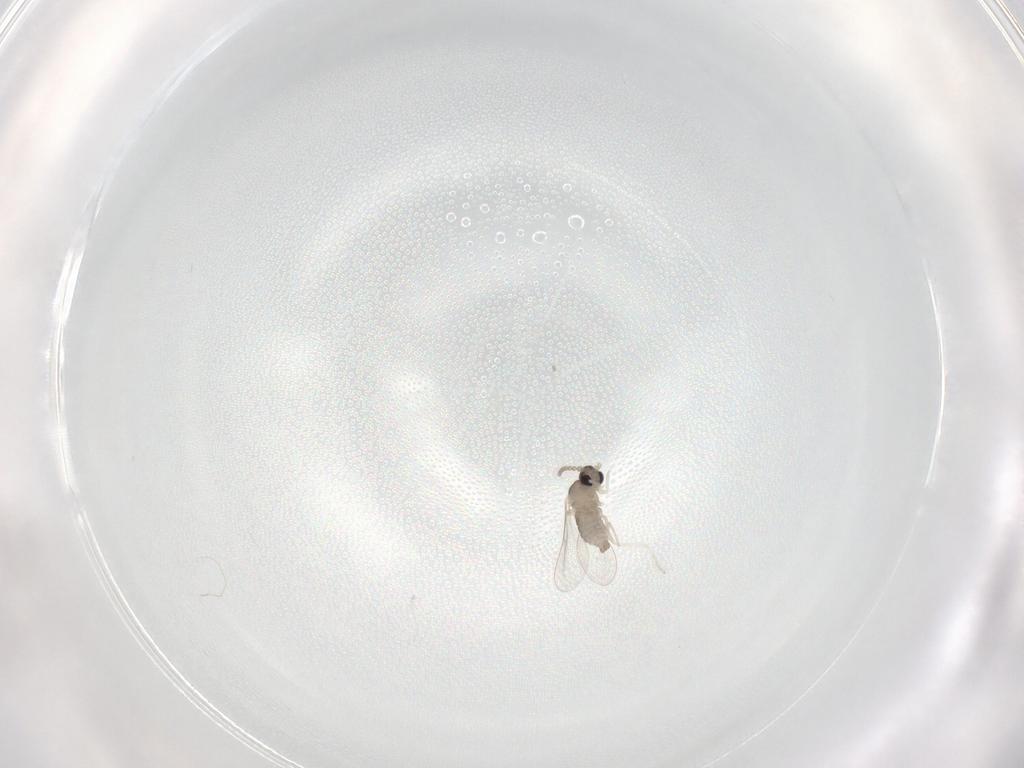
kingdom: Animalia
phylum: Arthropoda
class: Insecta
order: Diptera
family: Cecidomyiidae
